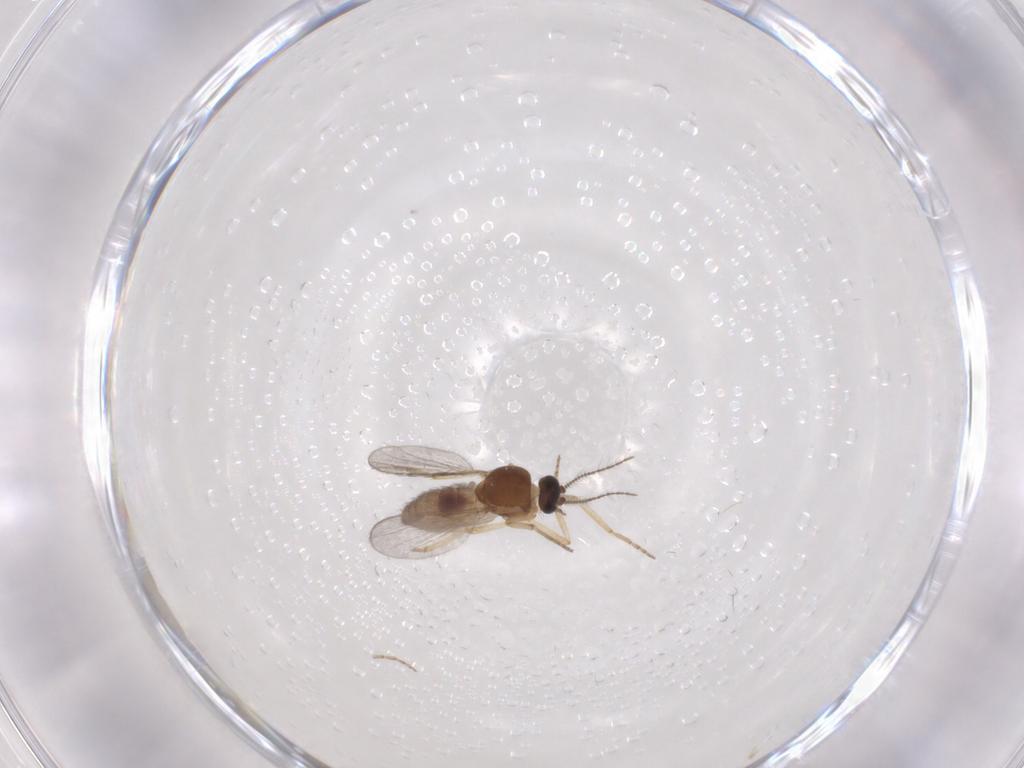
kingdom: Animalia
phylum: Arthropoda
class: Insecta
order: Diptera
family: Ceratopogonidae
